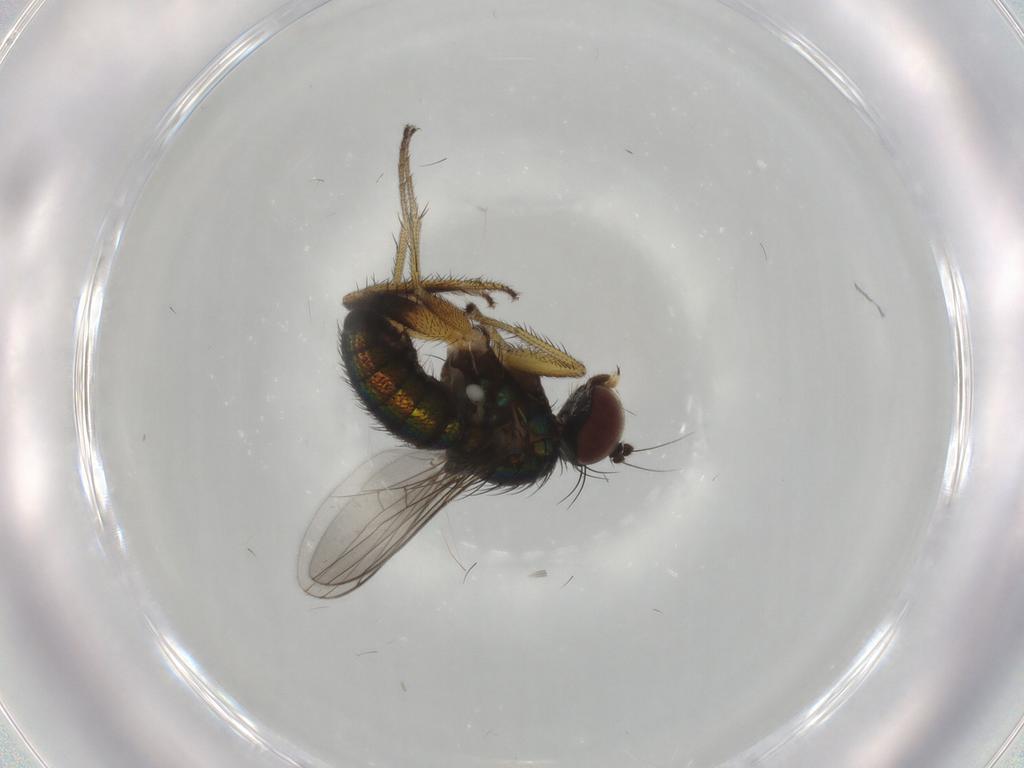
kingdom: Animalia
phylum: Arthropoda
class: Insecta
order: Diptera
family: Dolichopodidae
